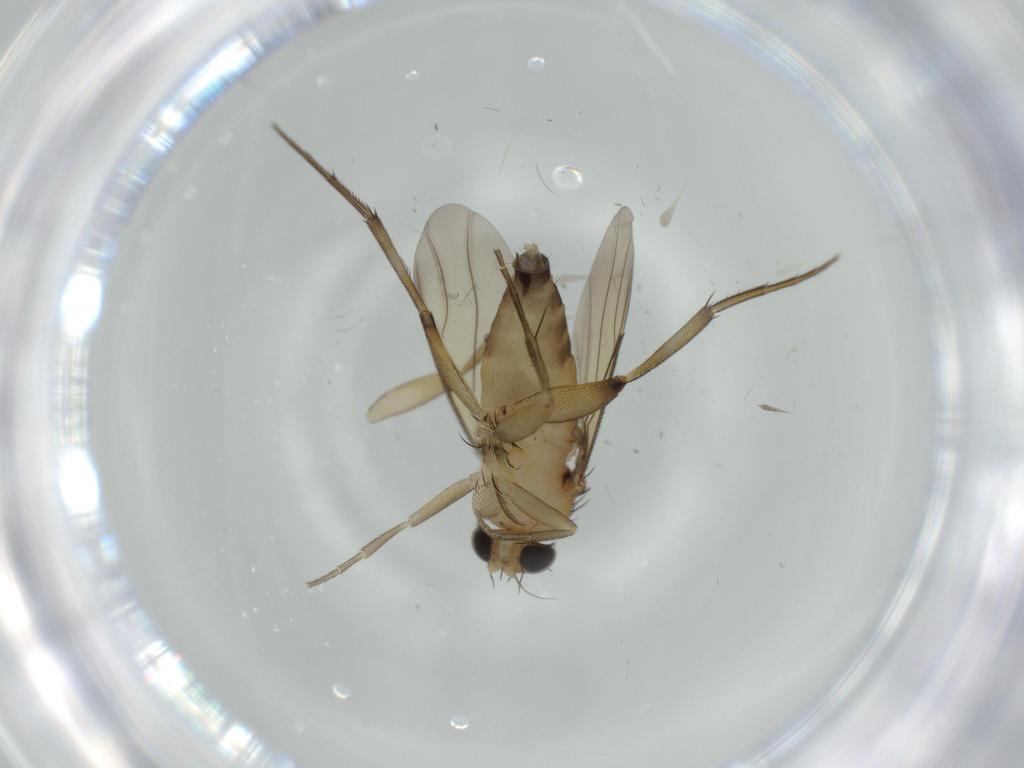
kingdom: Animalia
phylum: Arthropoda
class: Insecta
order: Diptera
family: Phoridae
